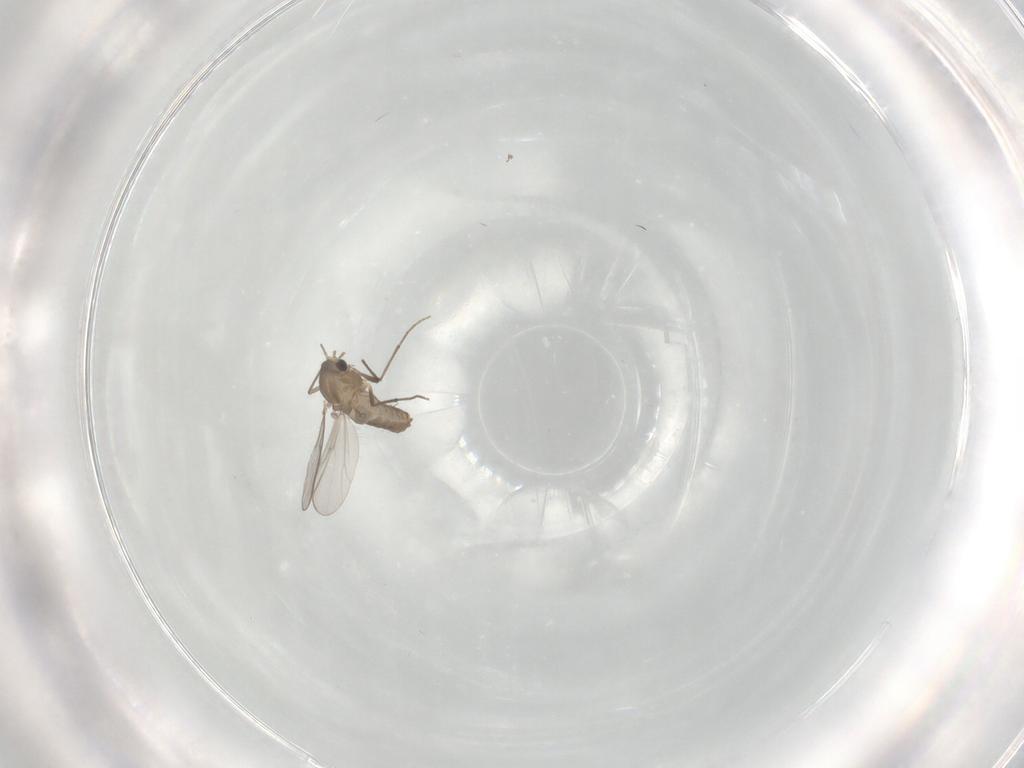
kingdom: Animalia
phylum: Arthropoda
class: Insecta
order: Diptera
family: Chironomidae
